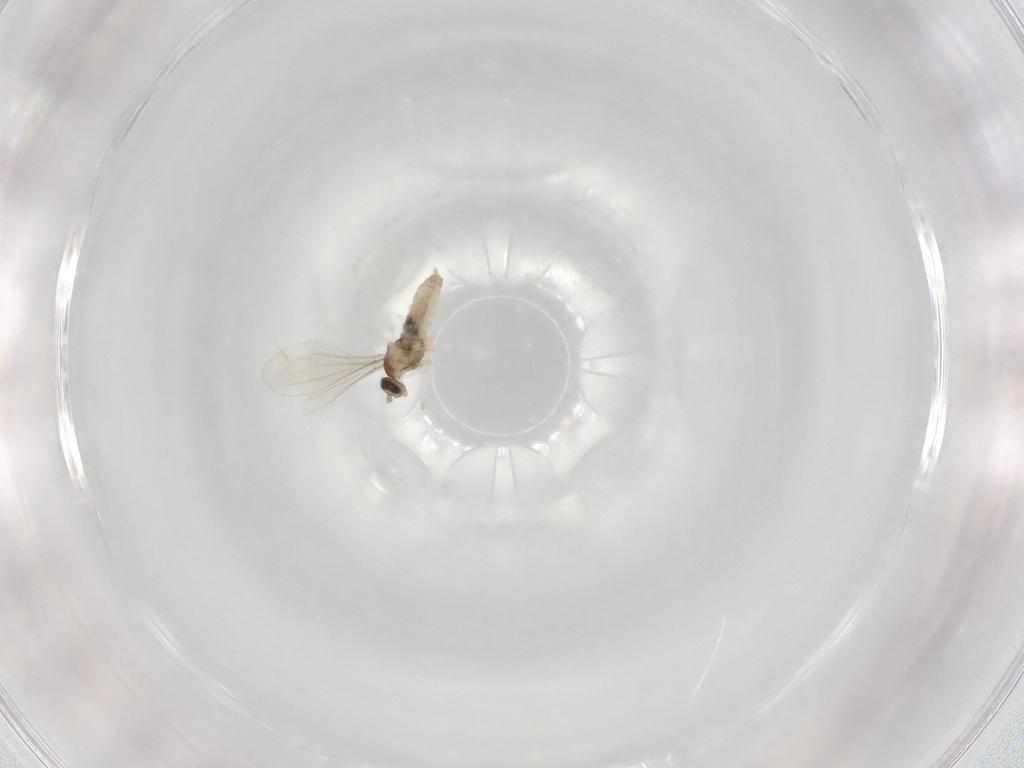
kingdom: Animalia
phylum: Arthropoda
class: Insecta
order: Diptera
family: Cecidomyiidae
